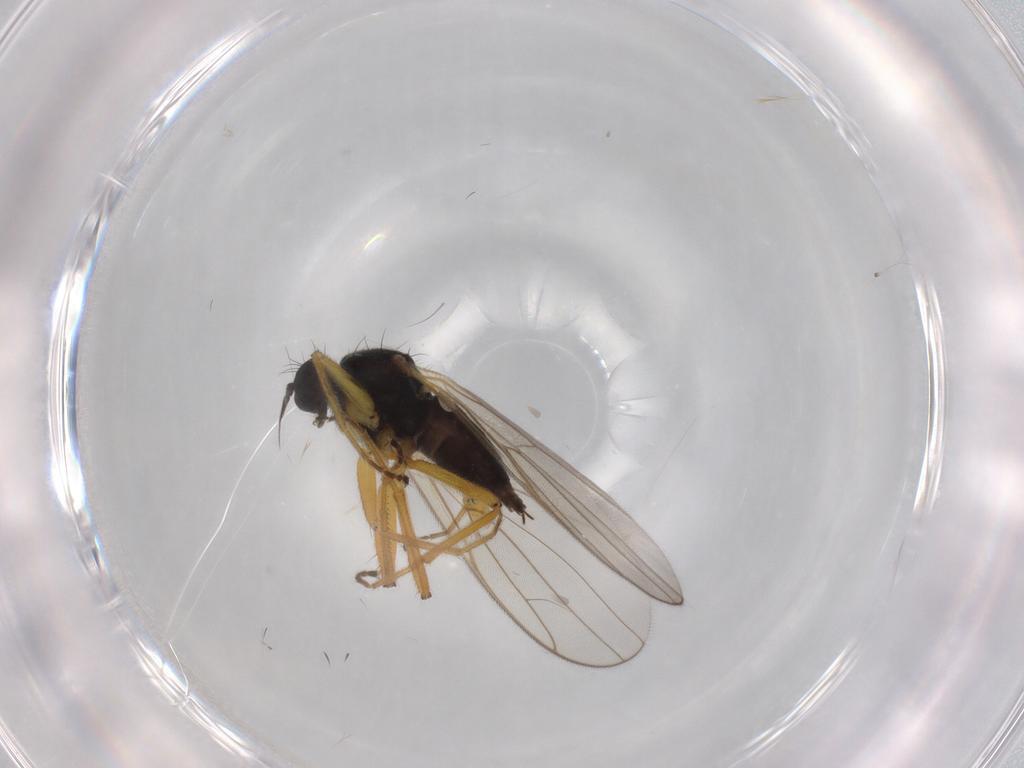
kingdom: Animalia
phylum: Arthropoda
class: Insecta
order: Diptera
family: Hybotidae
